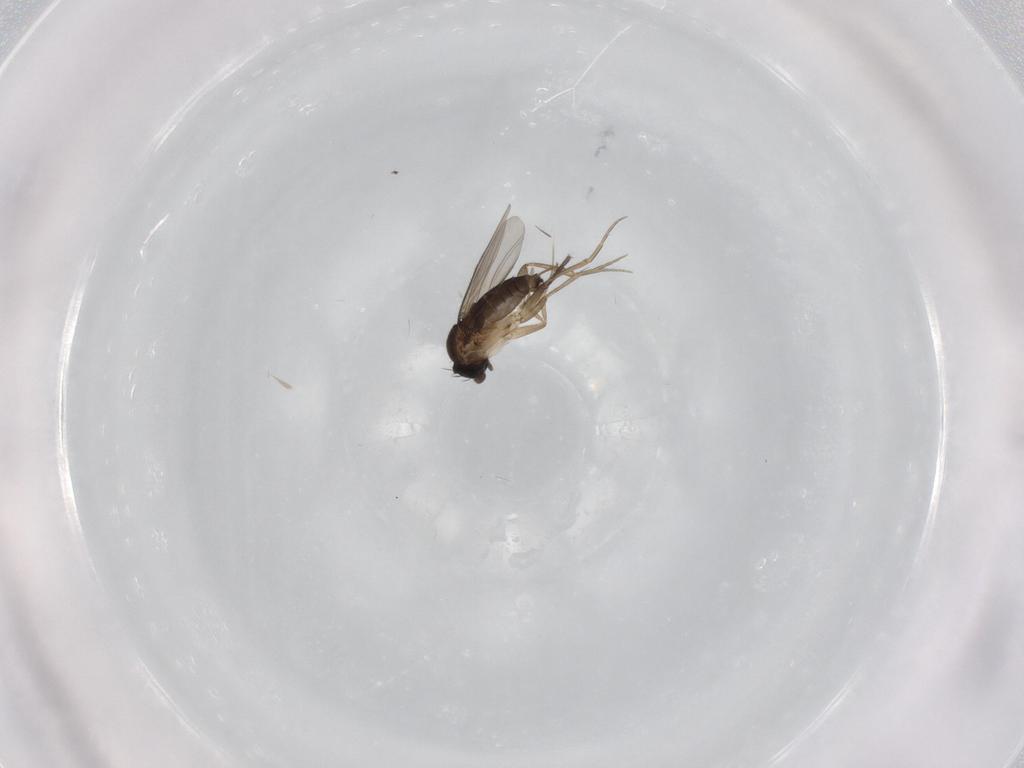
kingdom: Animalia
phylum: Arthropoda
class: Insecta
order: Diptera
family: Phoridae
